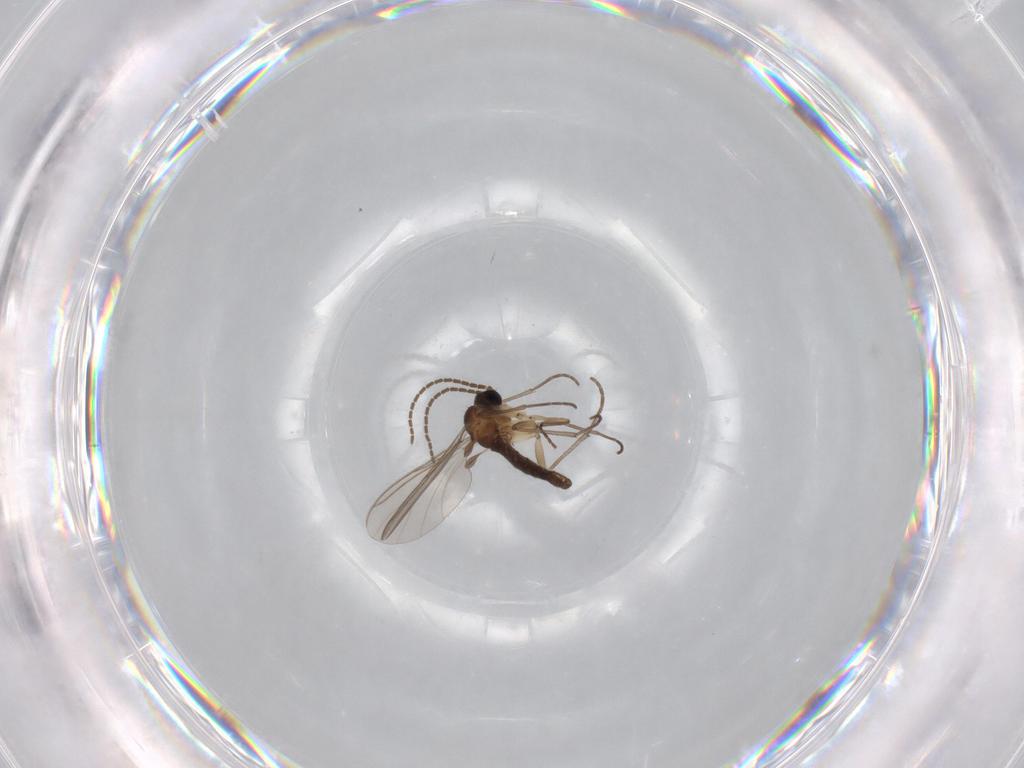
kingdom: Animalia
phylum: Arthropoda
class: Insecta
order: Diptera
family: Sciaridae
